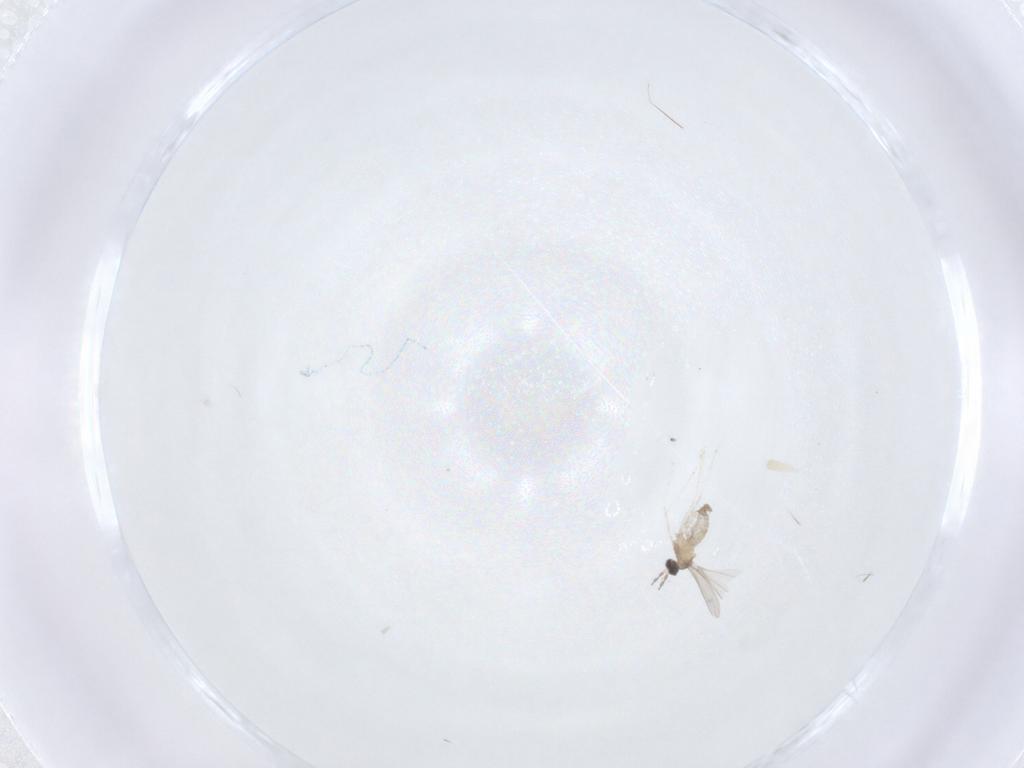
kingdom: Animalia
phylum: Arthropoda
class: Insecta
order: Diptera
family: Cecidomyiidae
